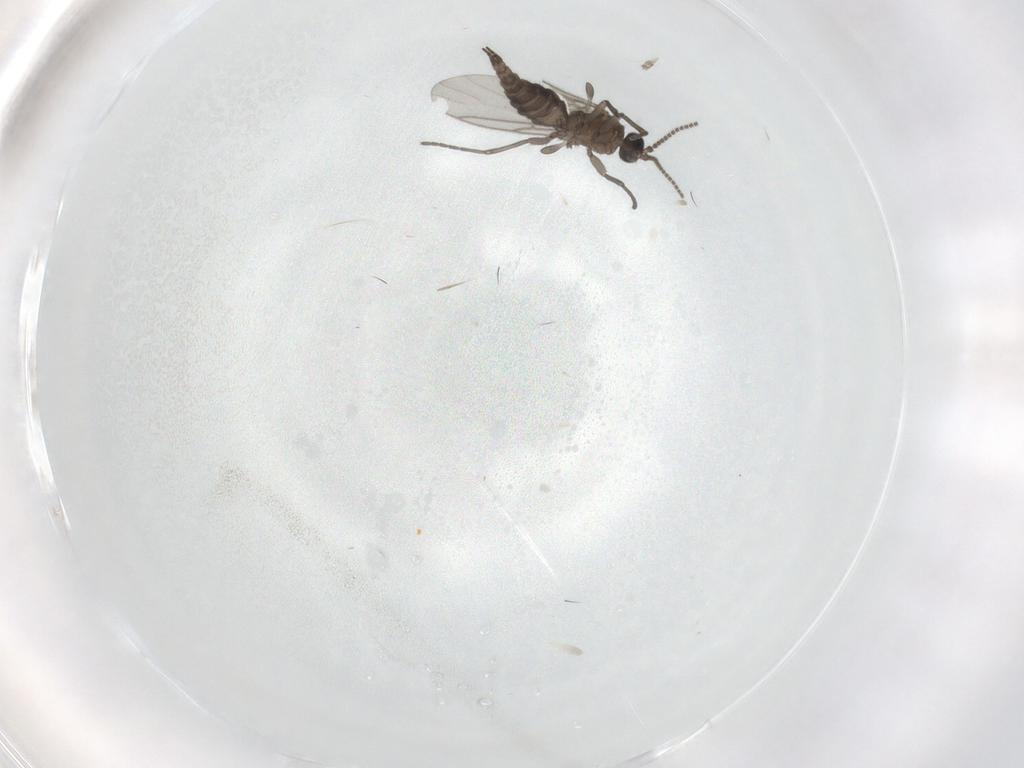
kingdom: Animalia
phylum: Arthropoda
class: Insecta
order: Diptera
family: Sciaridae
